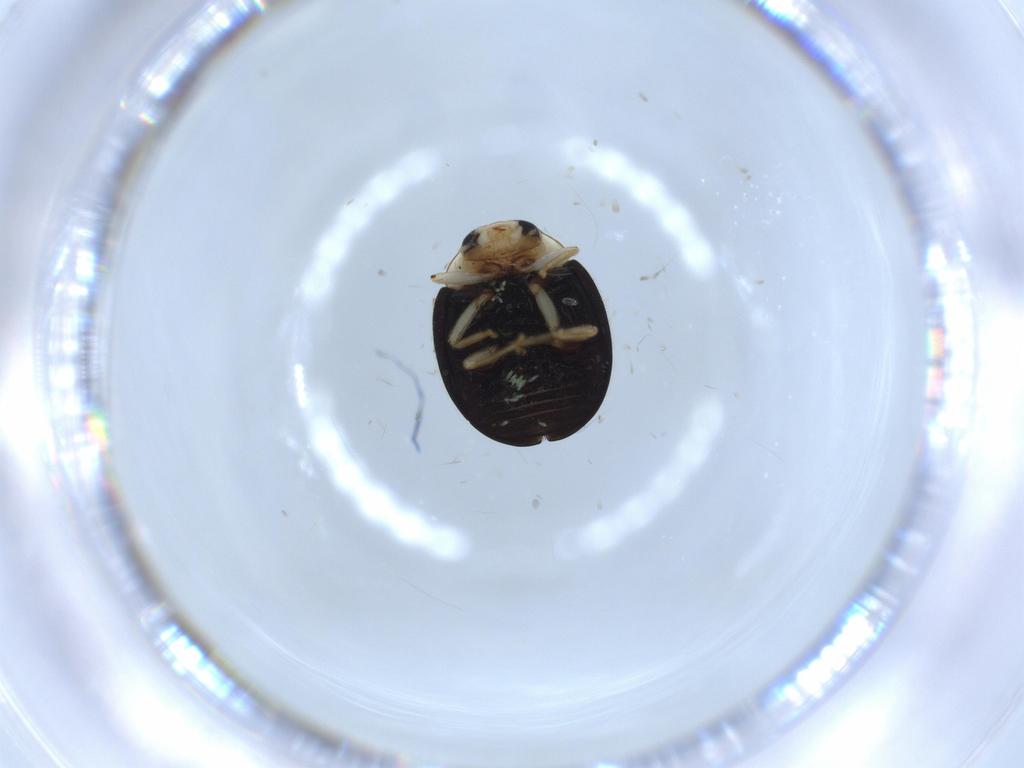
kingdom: Animalia
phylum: Arthropoda
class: Insecta
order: Coleoptera
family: Coccinellidae
